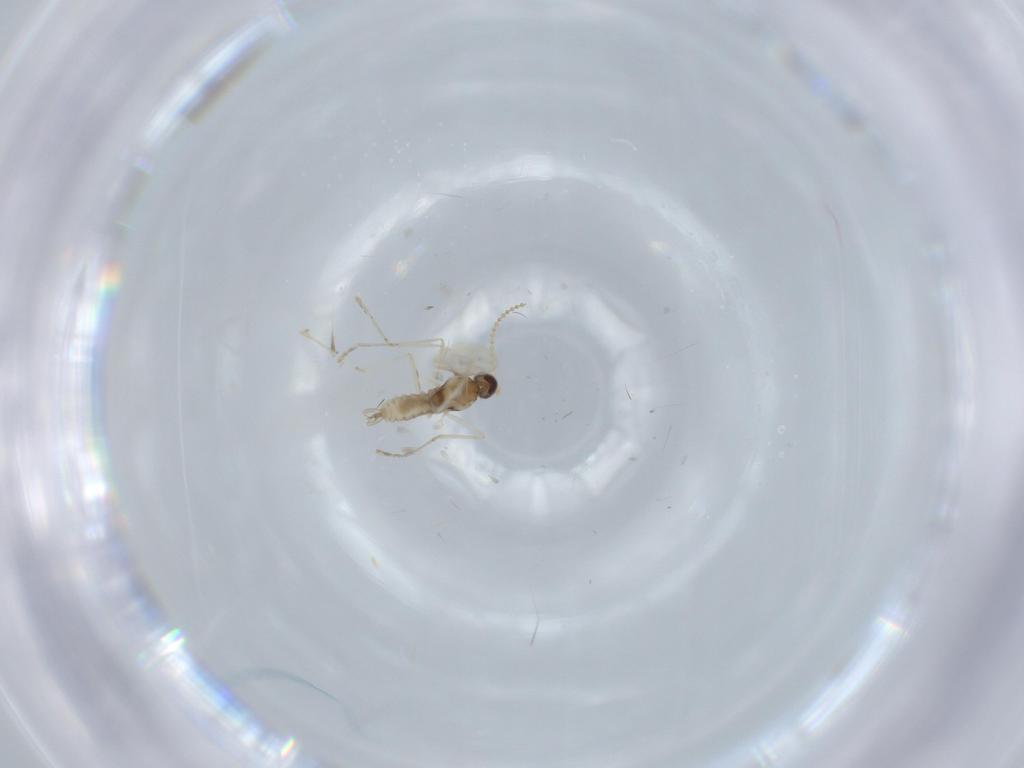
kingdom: Animalia
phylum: Arthropoda
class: Insecta
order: Diptera
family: Cecidomyiidae
